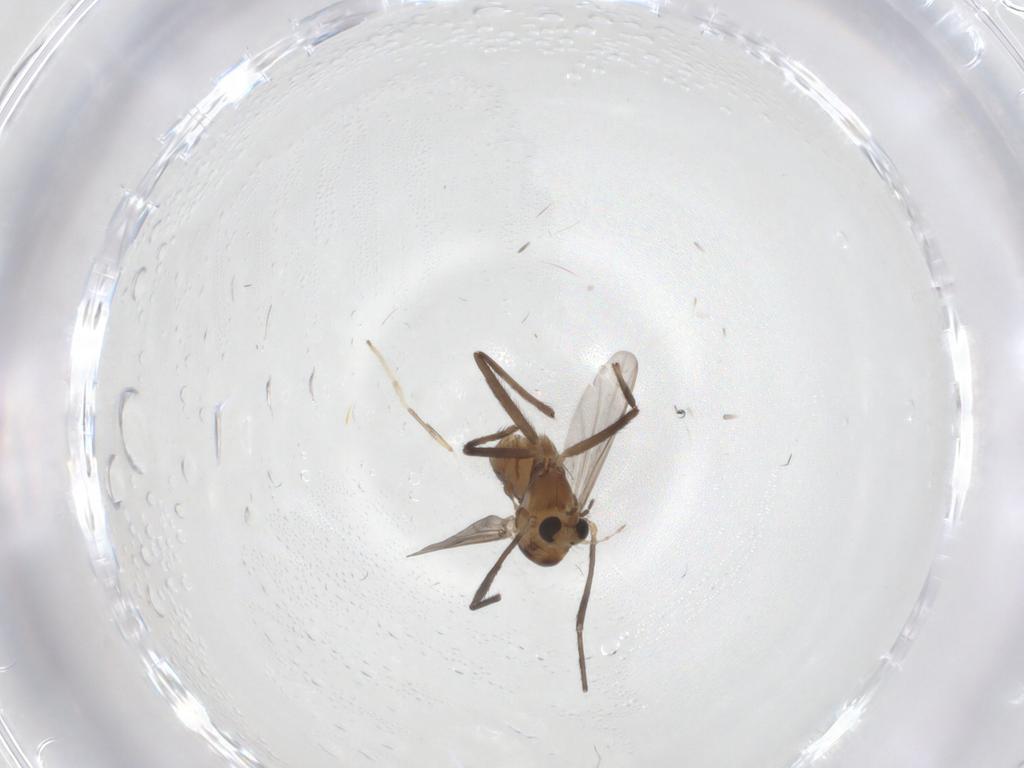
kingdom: Animalia
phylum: Arthropoda
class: Insecta
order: Diptera
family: Chironomidae
